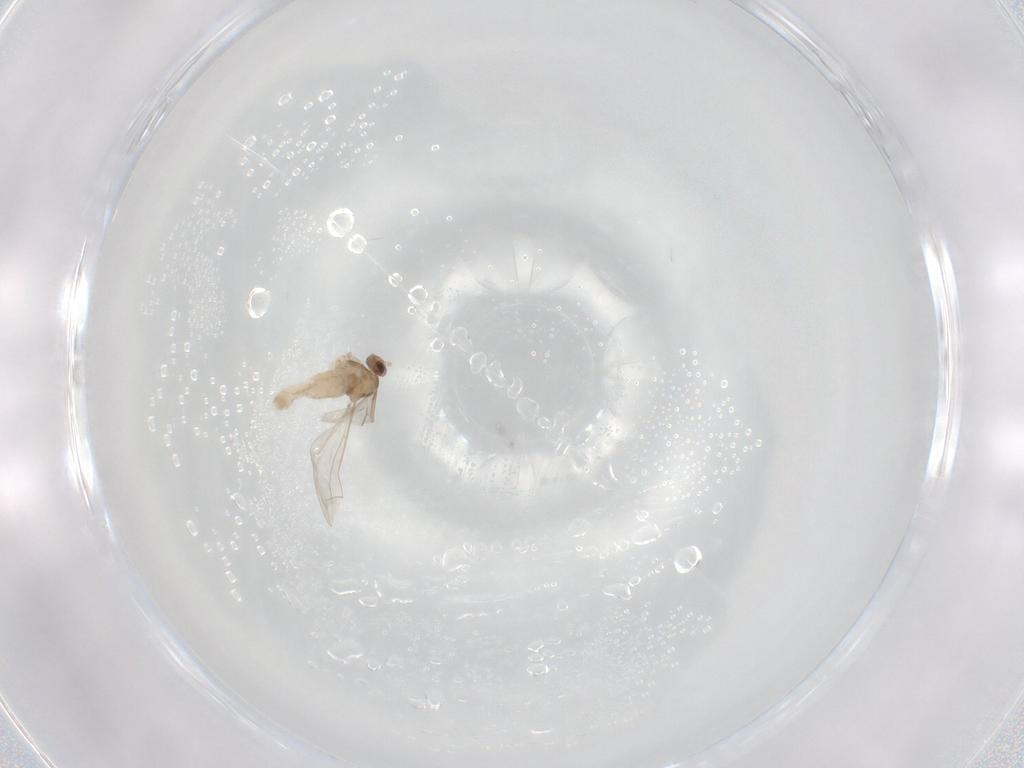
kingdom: Animalia
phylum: Arthropoda
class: Insecta
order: Diptera
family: Cecidomyiidae
